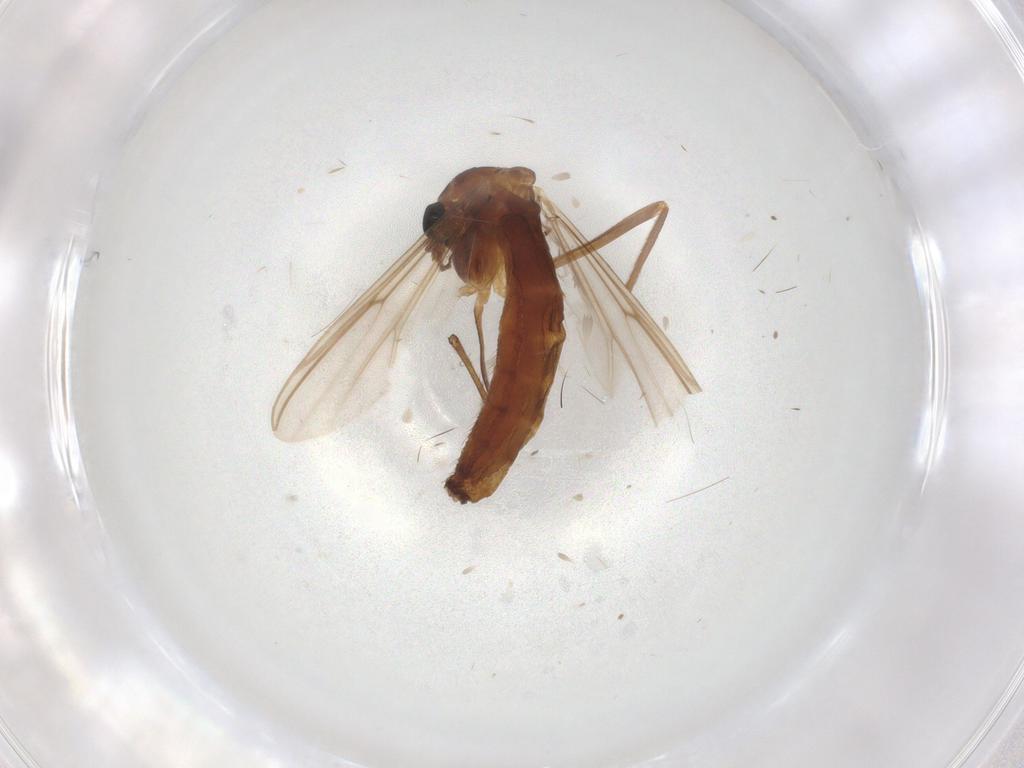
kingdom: Animalia
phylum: Arthropoda
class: Insecta
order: Diptera
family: Chironomidae
